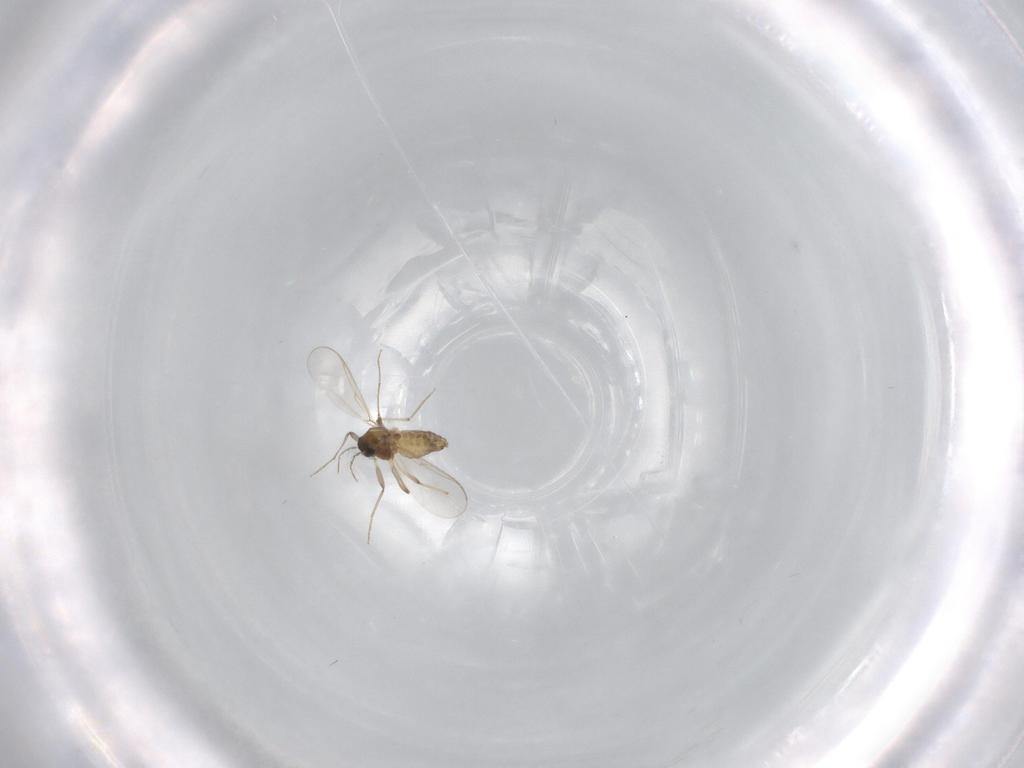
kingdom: Animalia
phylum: Arthropoda
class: Insecta
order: Diptera
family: Chironomidae
